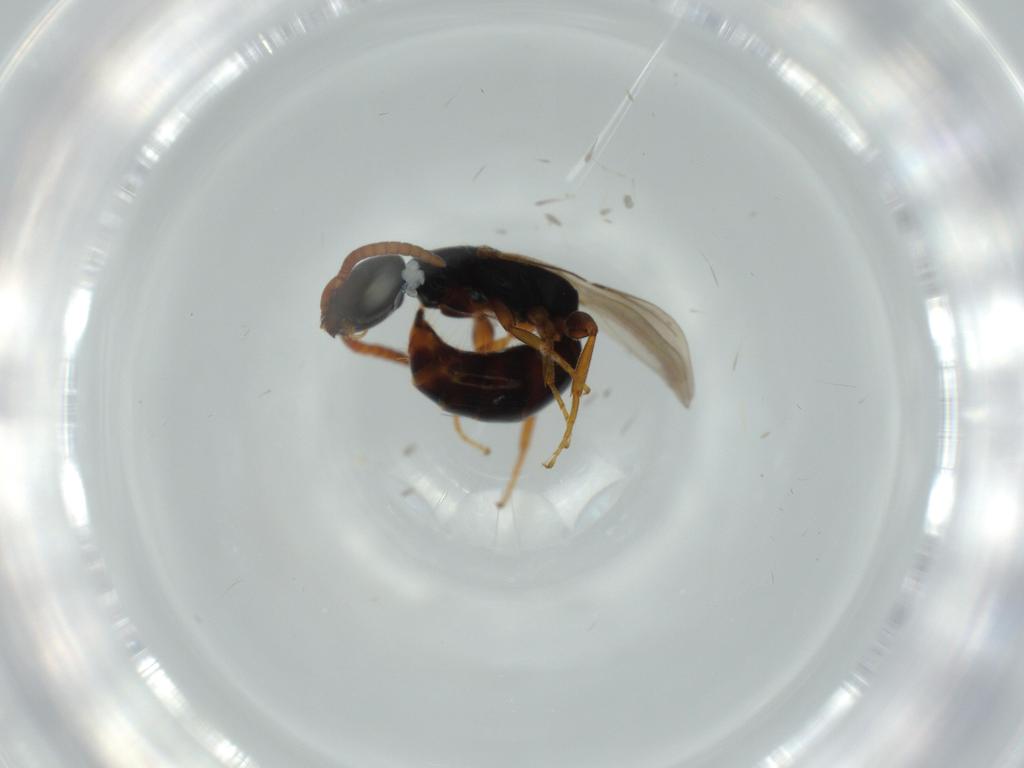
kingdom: Animalia
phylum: Arthropoda
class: Insecta
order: Hymenoptera
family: Bethylidae
